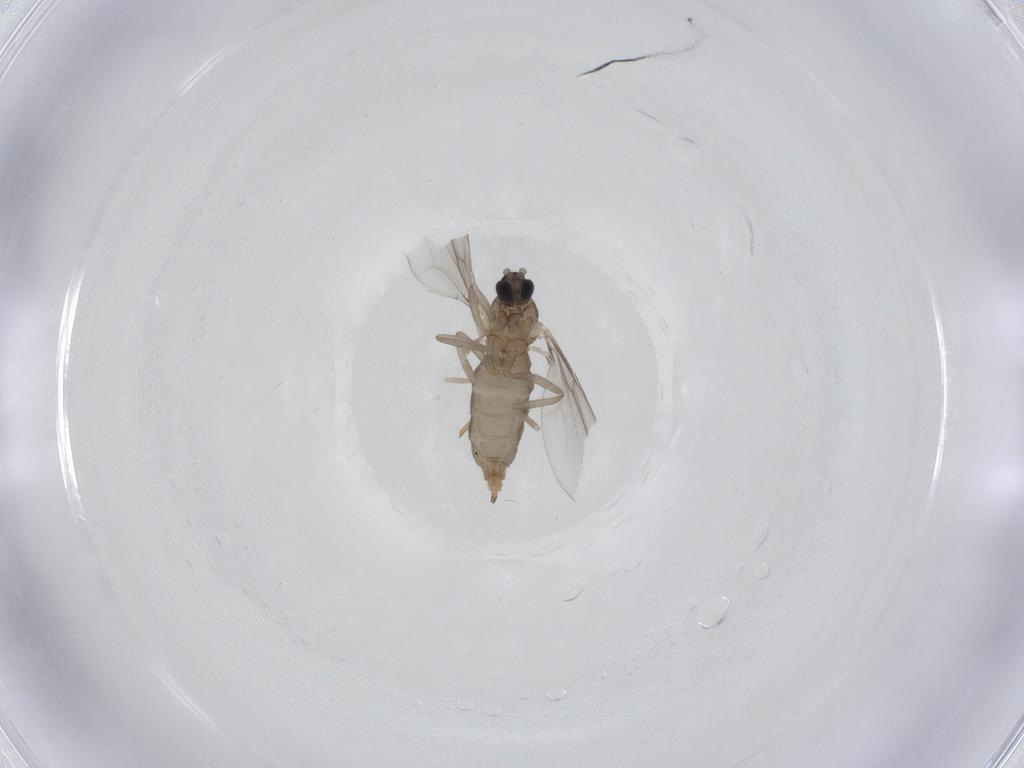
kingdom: Animalia
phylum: Arthropoda
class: Insecta
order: Diptera
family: Cecidomyiidae
